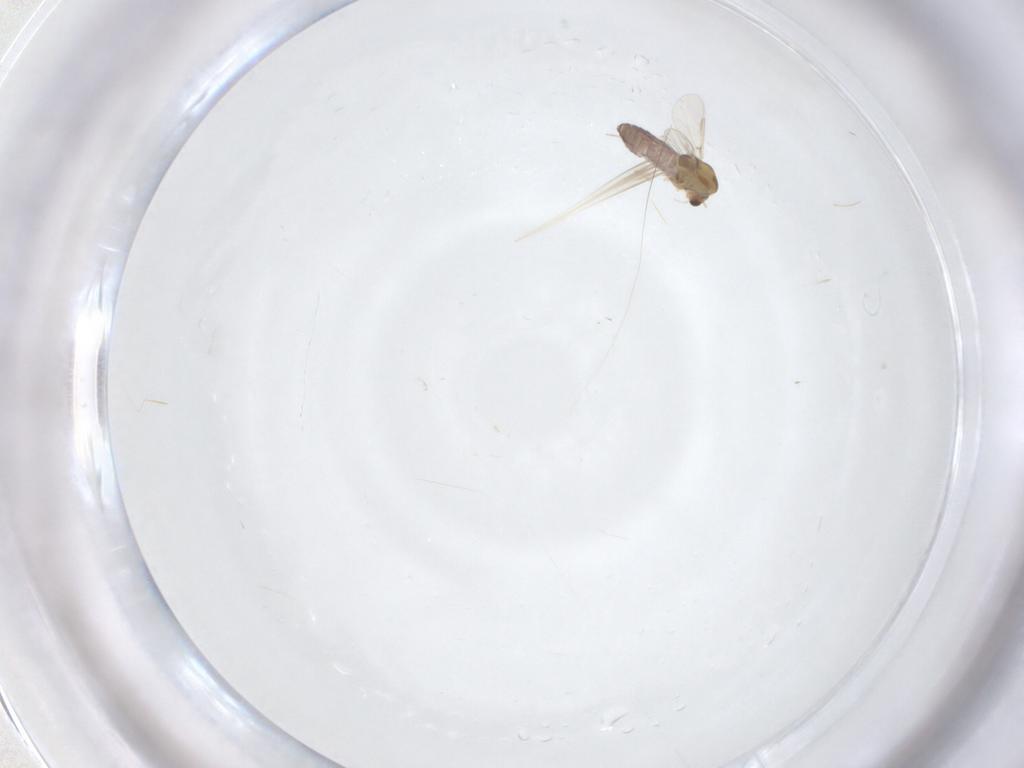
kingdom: Animalia
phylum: Arthropoda
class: Insecta
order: Diptera
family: Chironomidae
